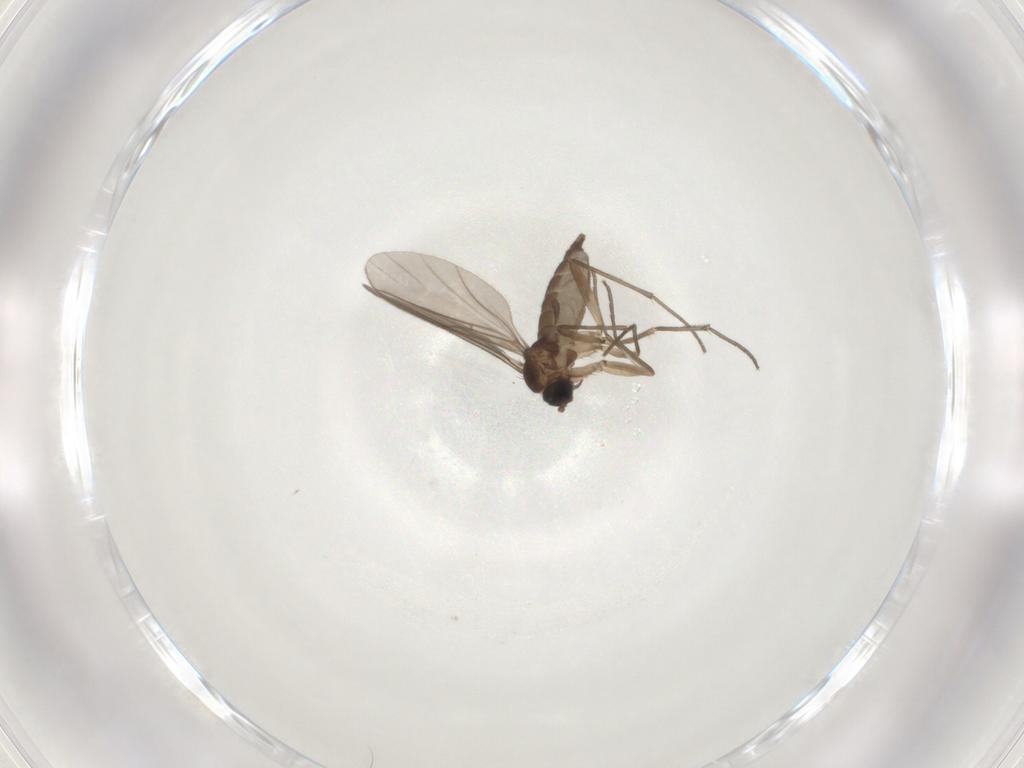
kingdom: Animalia
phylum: Arthropoda
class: Insecta
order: Diptera
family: Sciaridae
